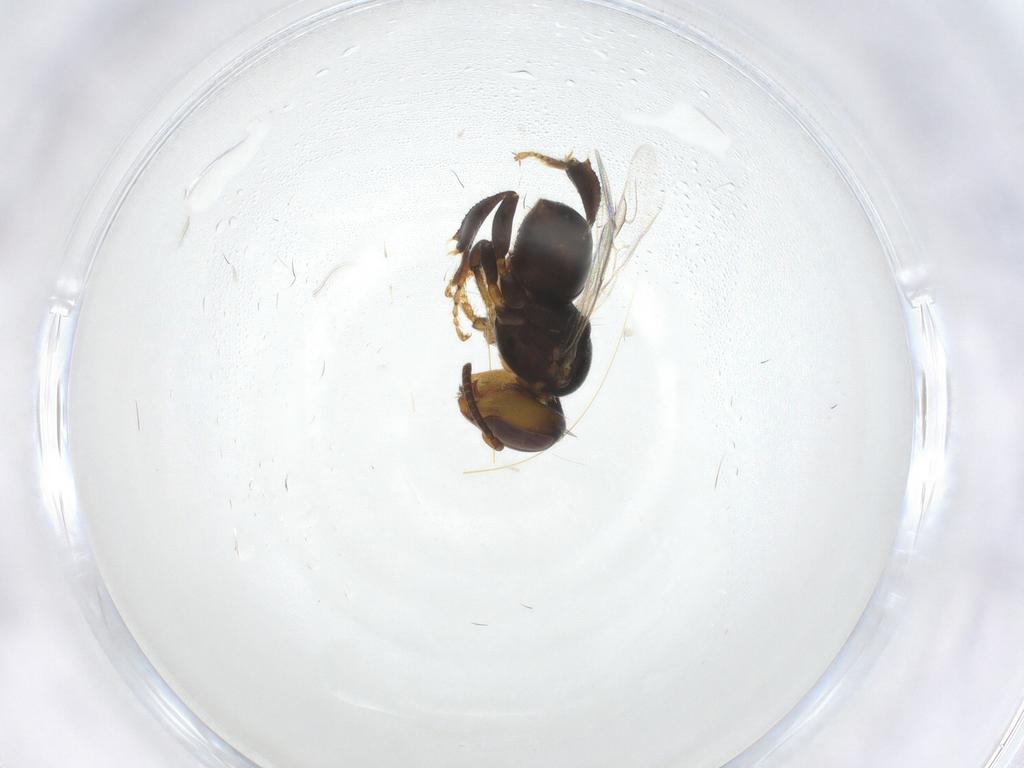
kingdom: Animalia
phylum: Arthropoda
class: Insecta
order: Hymenoptera
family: Apidae
